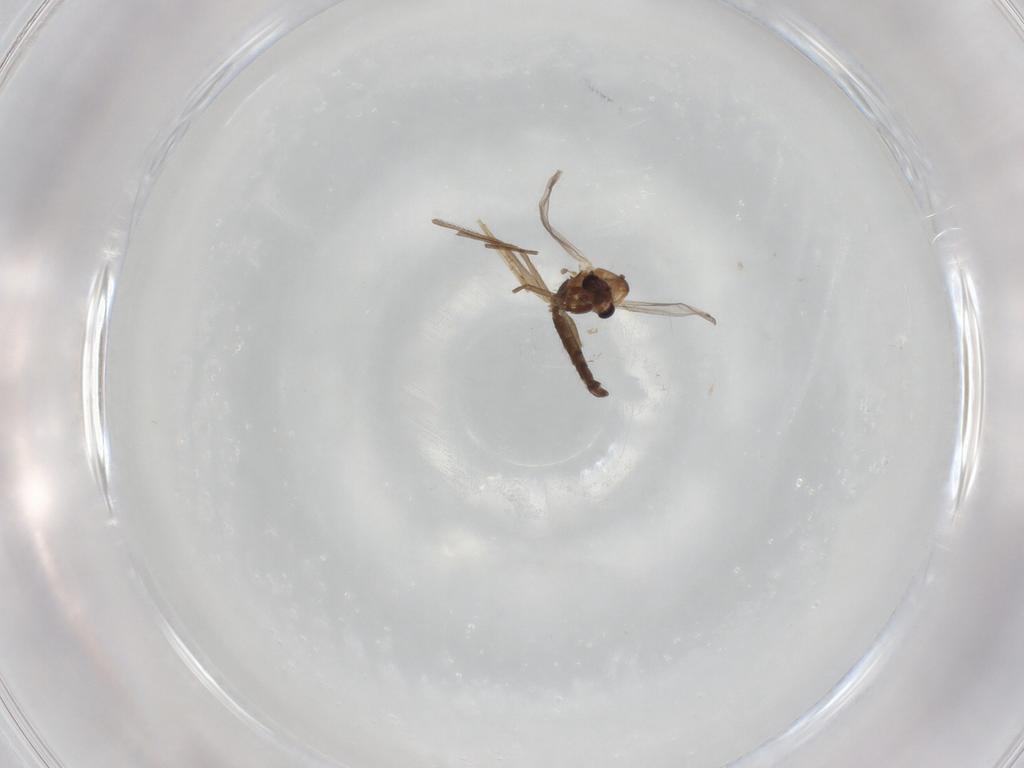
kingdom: Animalia
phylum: Arthropoda
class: Insecta
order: Diptera
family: Chironomidae
